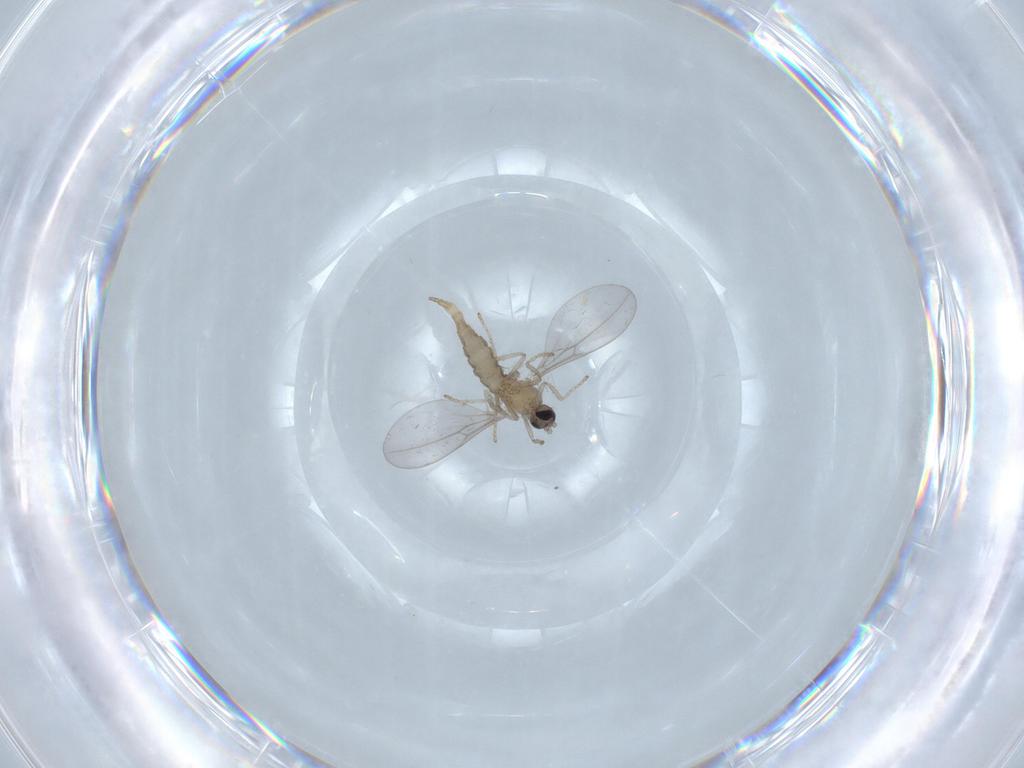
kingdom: Animalia
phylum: Arthropoda
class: Insecta
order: Diptera
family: Cecidomyiidae
